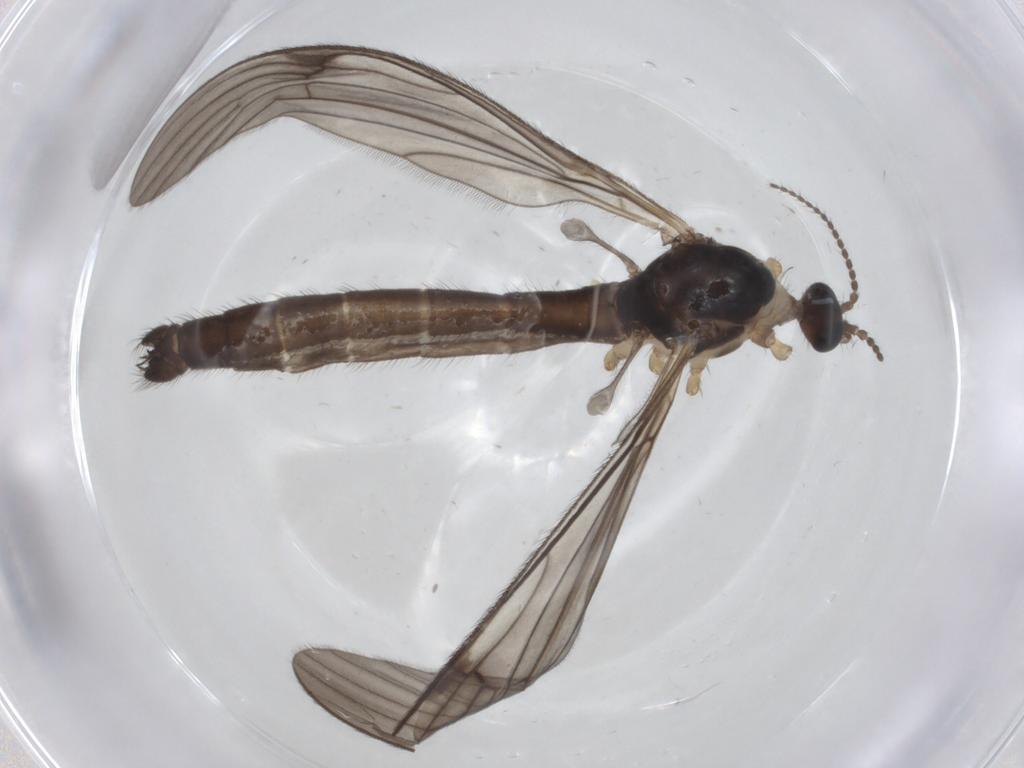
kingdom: Animalia
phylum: Arthropoda
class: Insecta
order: Diptera
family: Limoniidae
